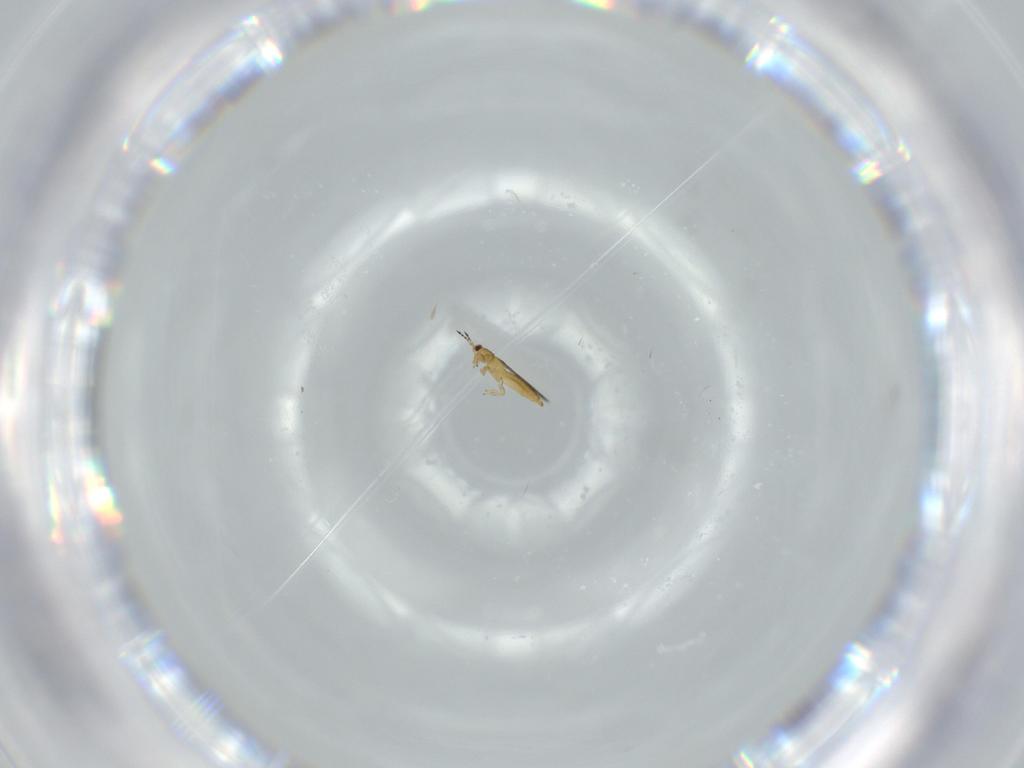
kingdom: Animalia
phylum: Arthropoda
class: Insecta
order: Thysanoptera
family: Thripidae
